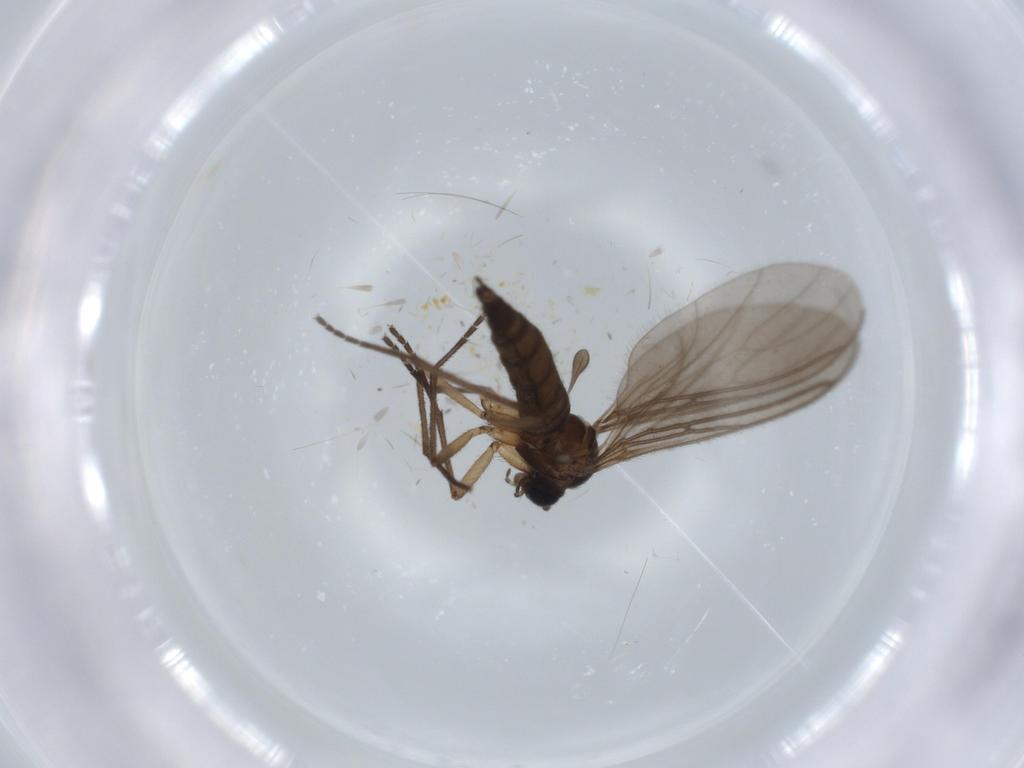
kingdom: Animalia
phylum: Arthropoda
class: Insecta
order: Diptera
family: Sciaridae
